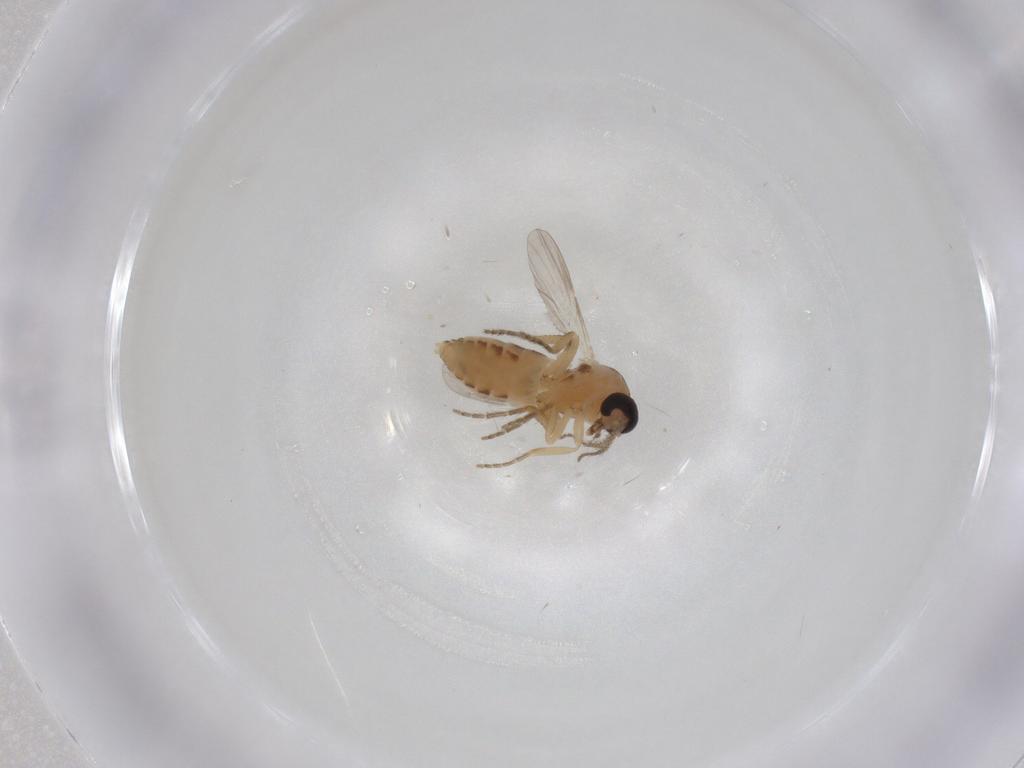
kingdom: Animalia
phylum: Arthropoda
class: Insecta
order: Diptera
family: Ceratopogonidae
